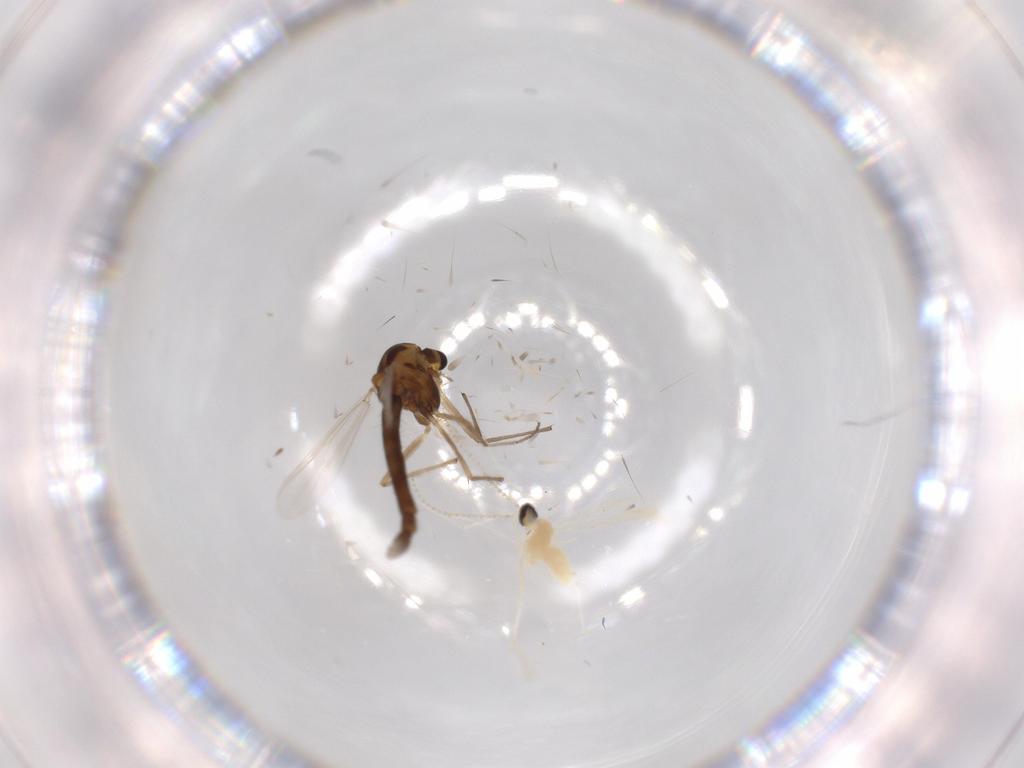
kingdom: Animalia
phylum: Arthropoda
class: Insecta
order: Diptera
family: Chironomidae
